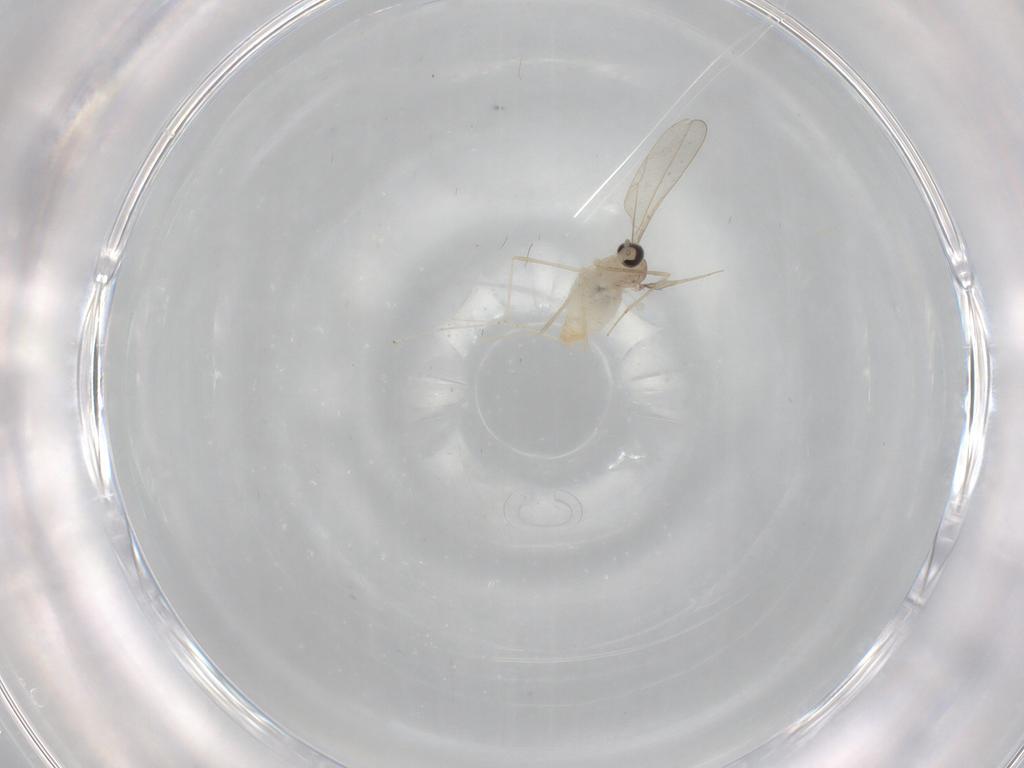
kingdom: Animalia
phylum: Arthropoda
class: Insecta
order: Diptera
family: Cecidomyiidae
